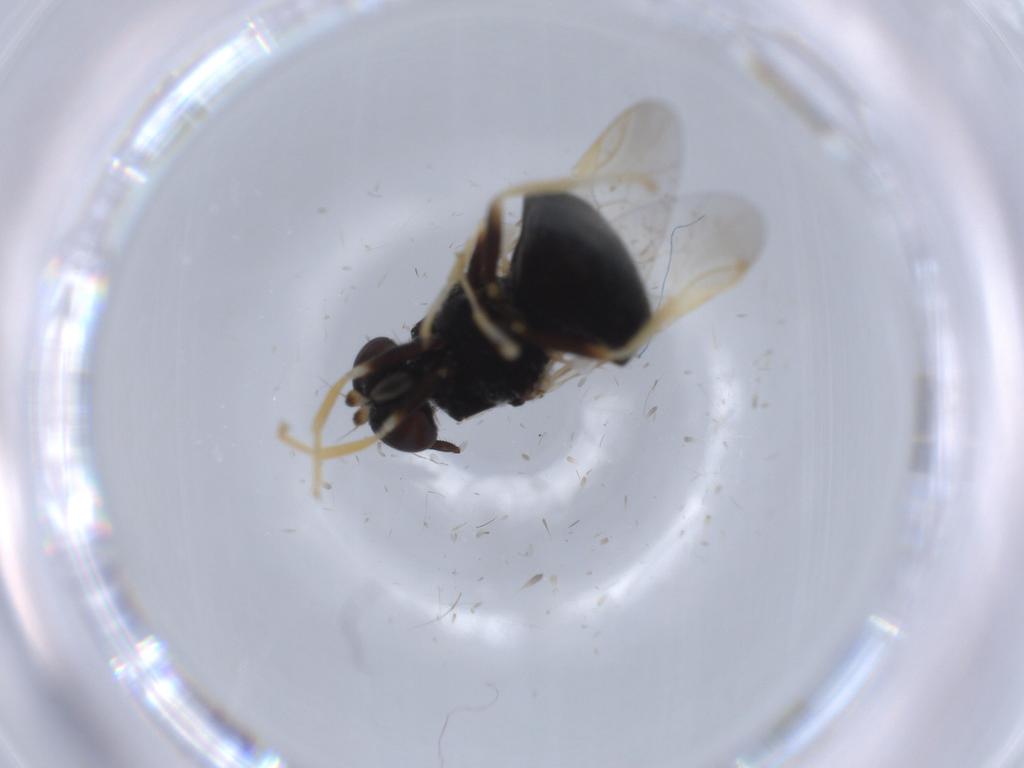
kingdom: Animalia
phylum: Arthropoda
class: Insecta
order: Diptera
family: Stratiomyidae
